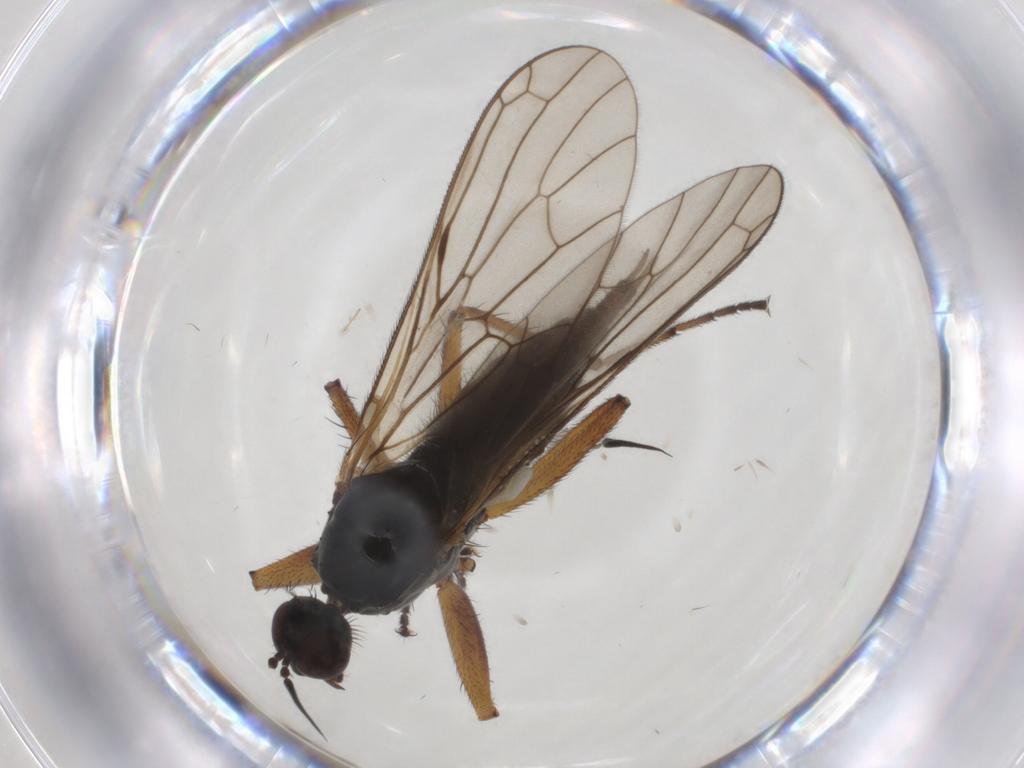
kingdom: Animalia
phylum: Arthropoda
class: Insecta
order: Diptera
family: Empididae
